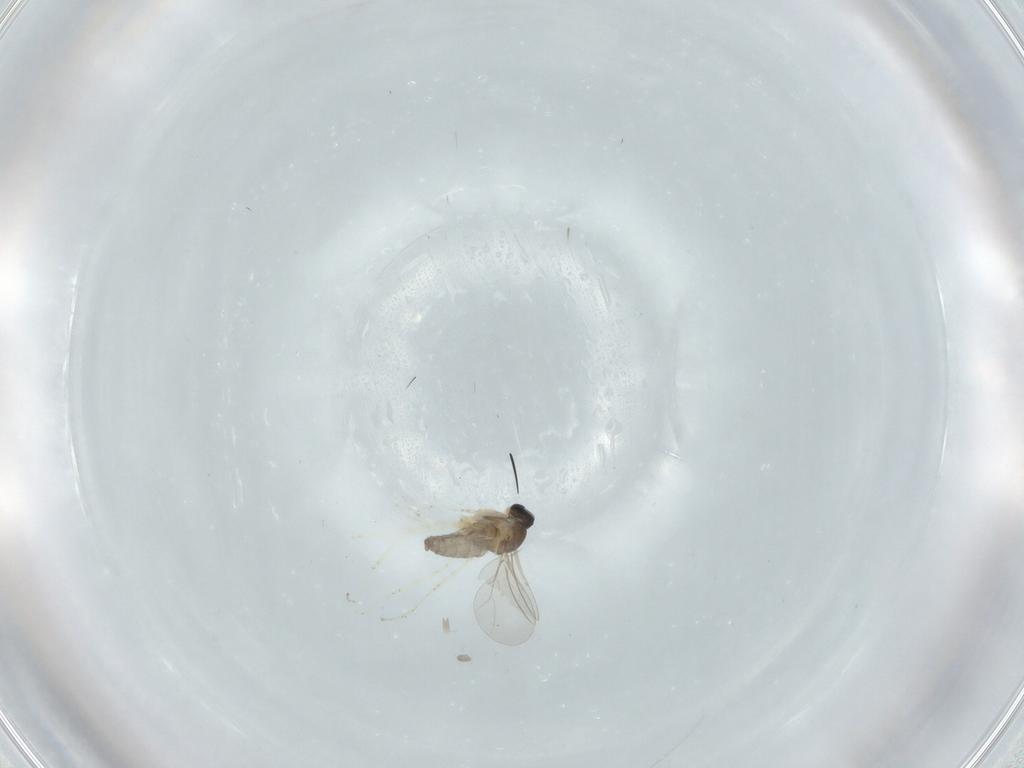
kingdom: Animalia
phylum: Arthropoda
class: Insecta
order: Diptera
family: Cecidomyiidae
